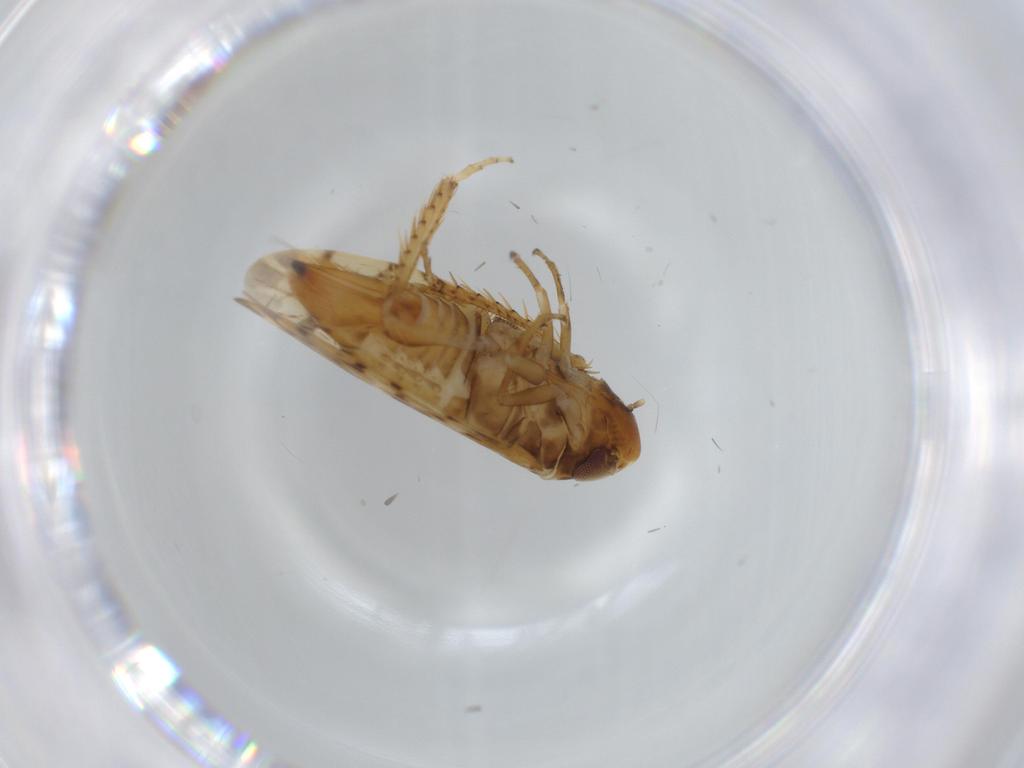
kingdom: Animalia
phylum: Arthropoda
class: Insecta
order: Hemiptera
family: Cicadellidae
